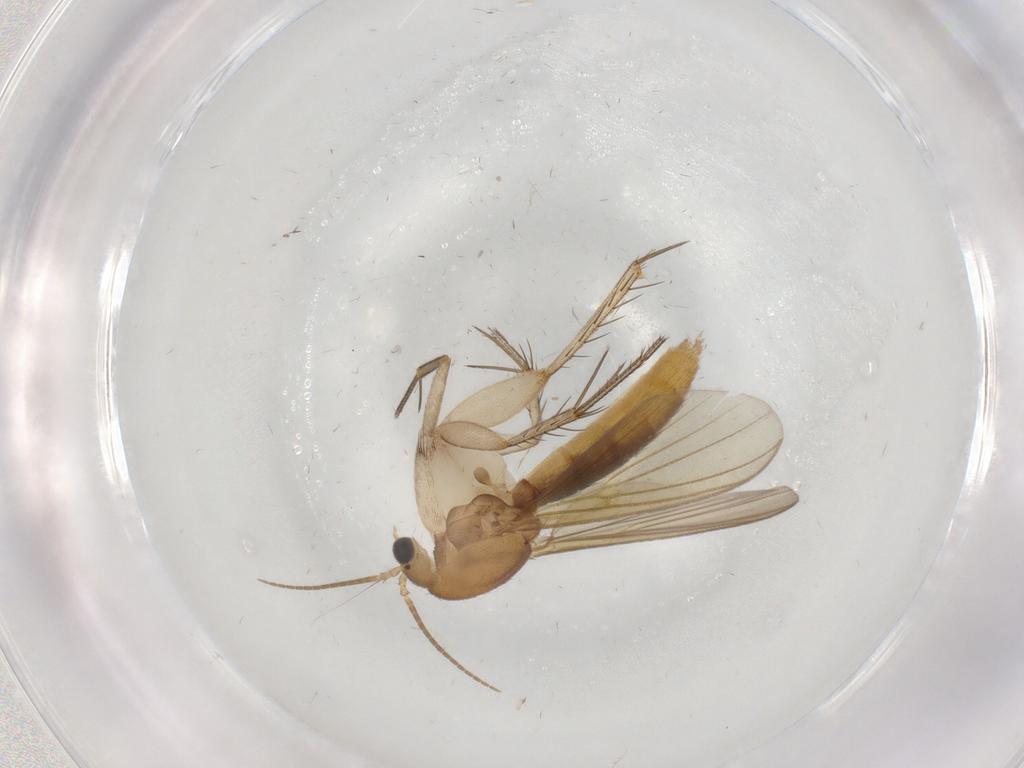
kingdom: Animalia
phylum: Arthropoda
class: Insecta
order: Diptera
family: Mycetophilidae
